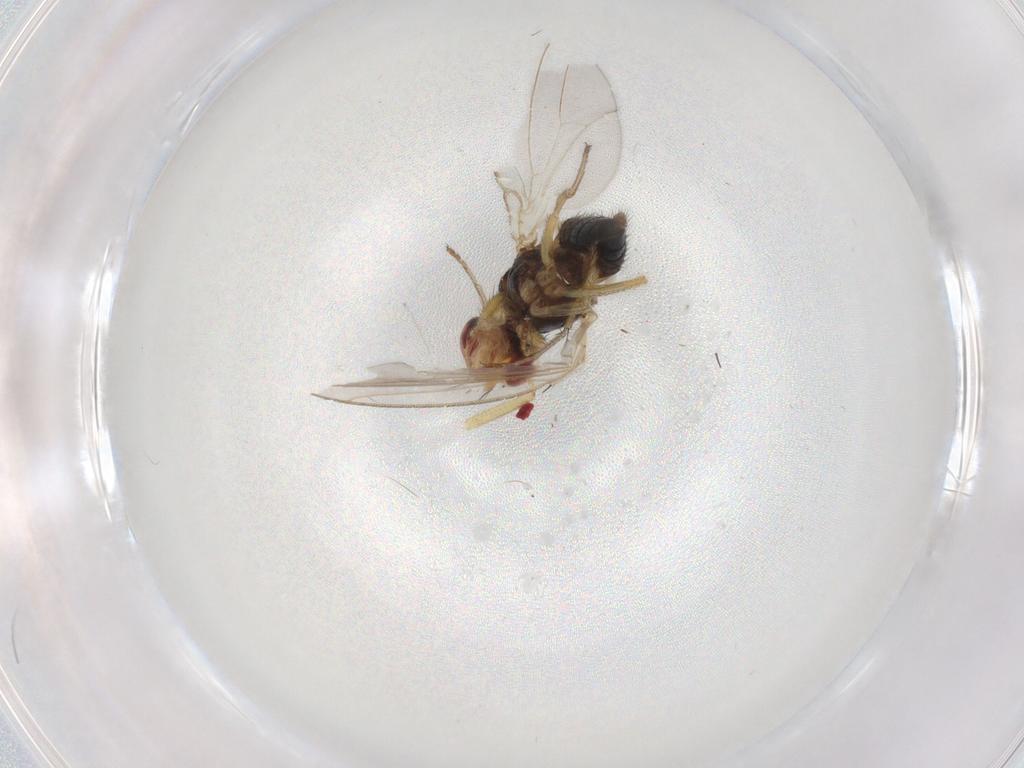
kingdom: Animalia
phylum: Arthropoda
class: Insecta
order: Diptera
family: Drosophilidae
